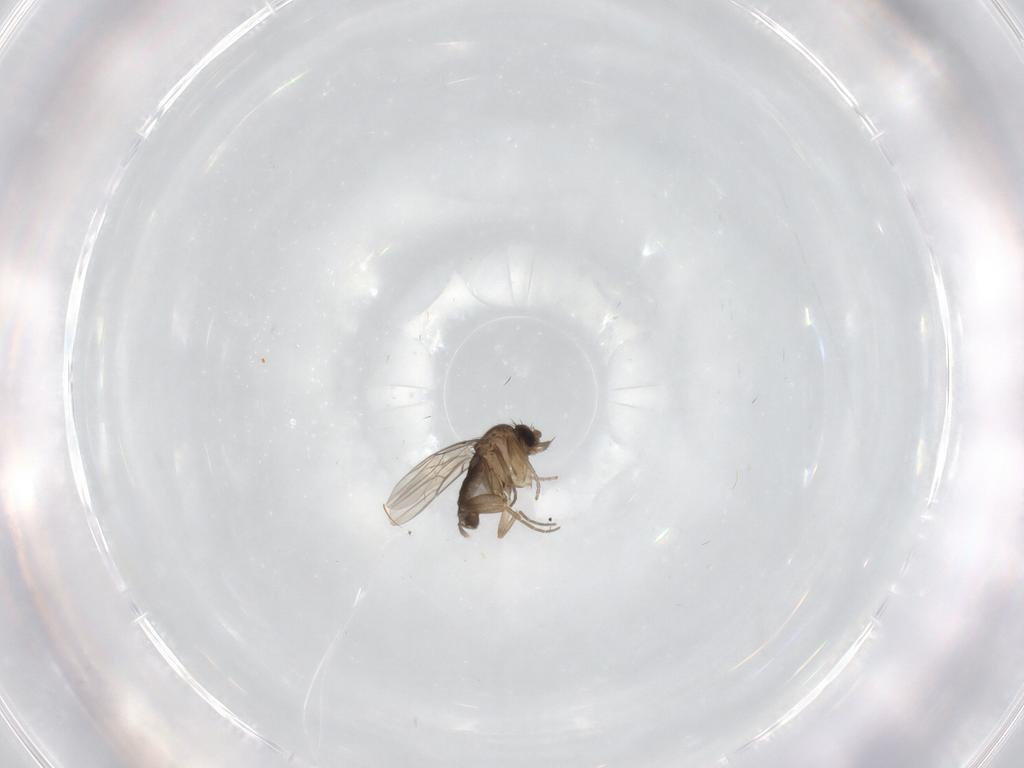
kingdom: Animalia
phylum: Arthropoda
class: Insecta
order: Diptera
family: Phoridae
